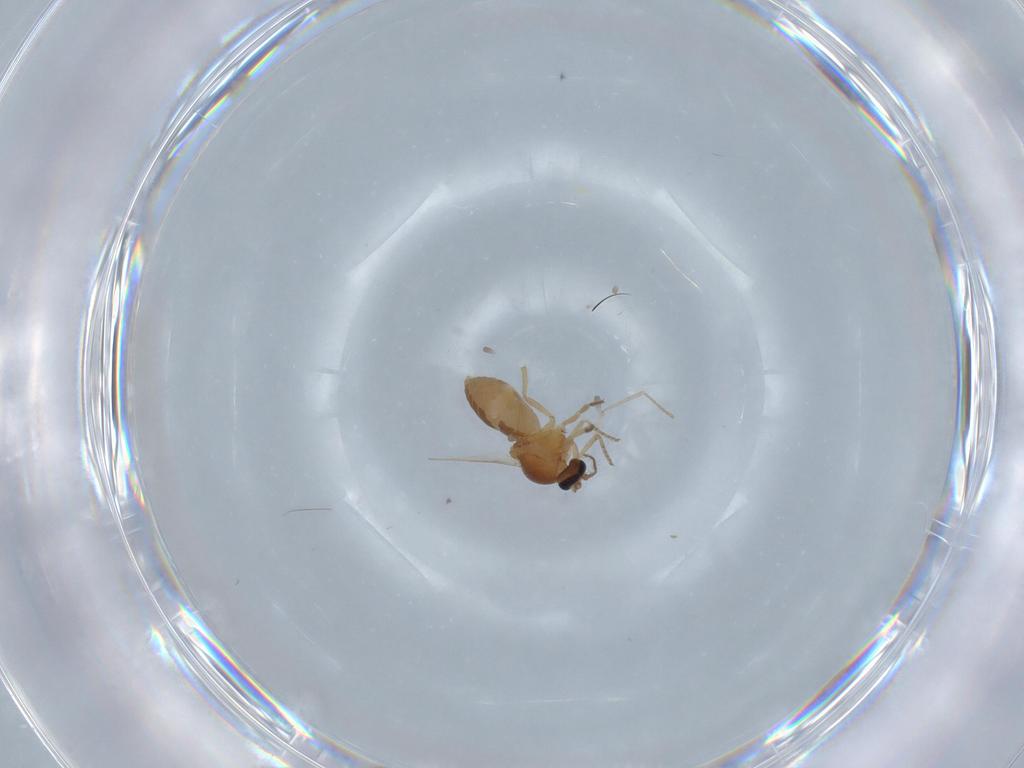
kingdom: Animalia
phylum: Arthropoda
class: Insecta
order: Diptera
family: Ceratopogonidae
